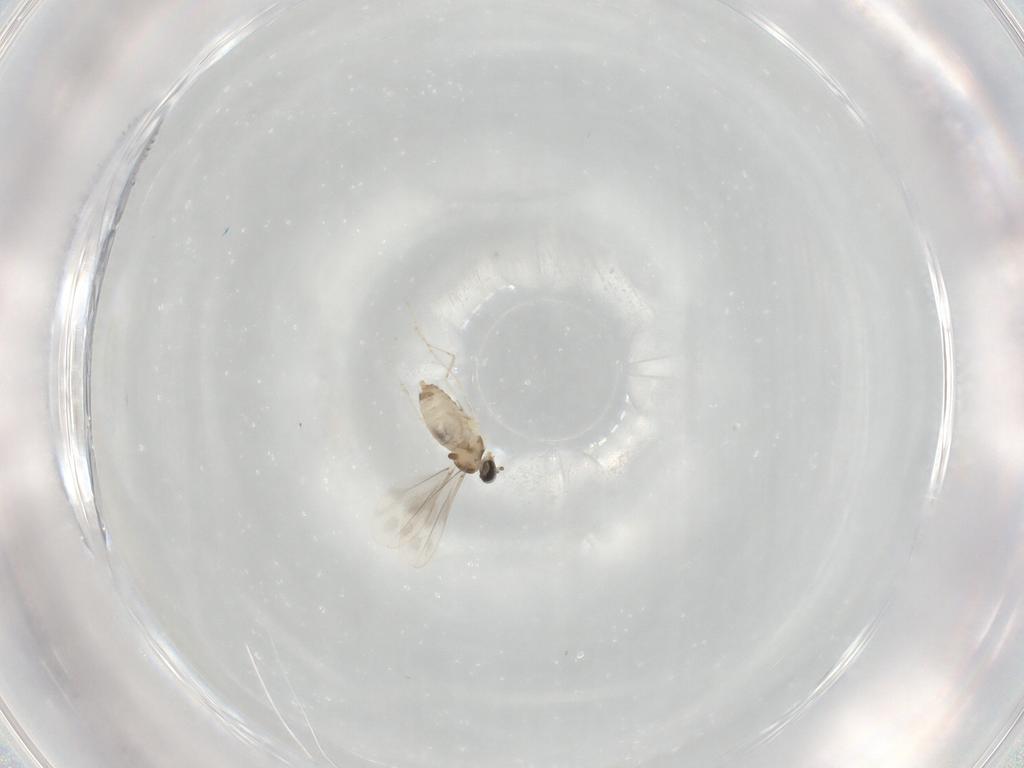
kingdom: Animalia
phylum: Arthropoda
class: Insecta
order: Diptera
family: Cecidomyiidae
